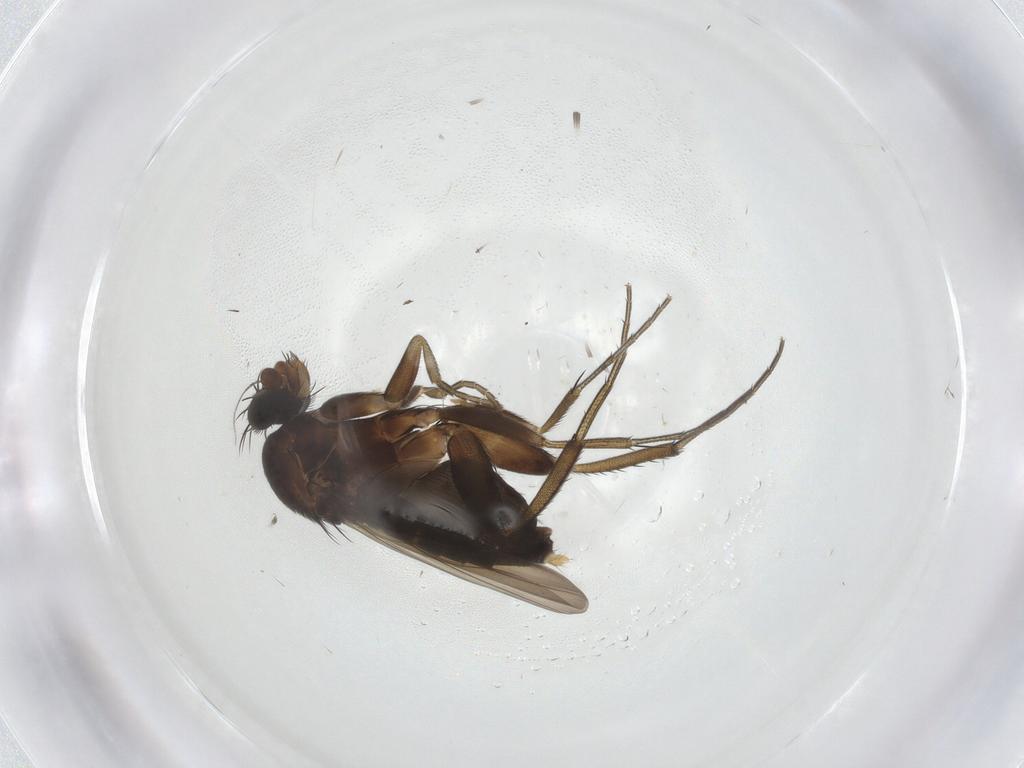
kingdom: Animalia
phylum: Arthropoda
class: Insecta
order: Diptera
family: Phoridae
